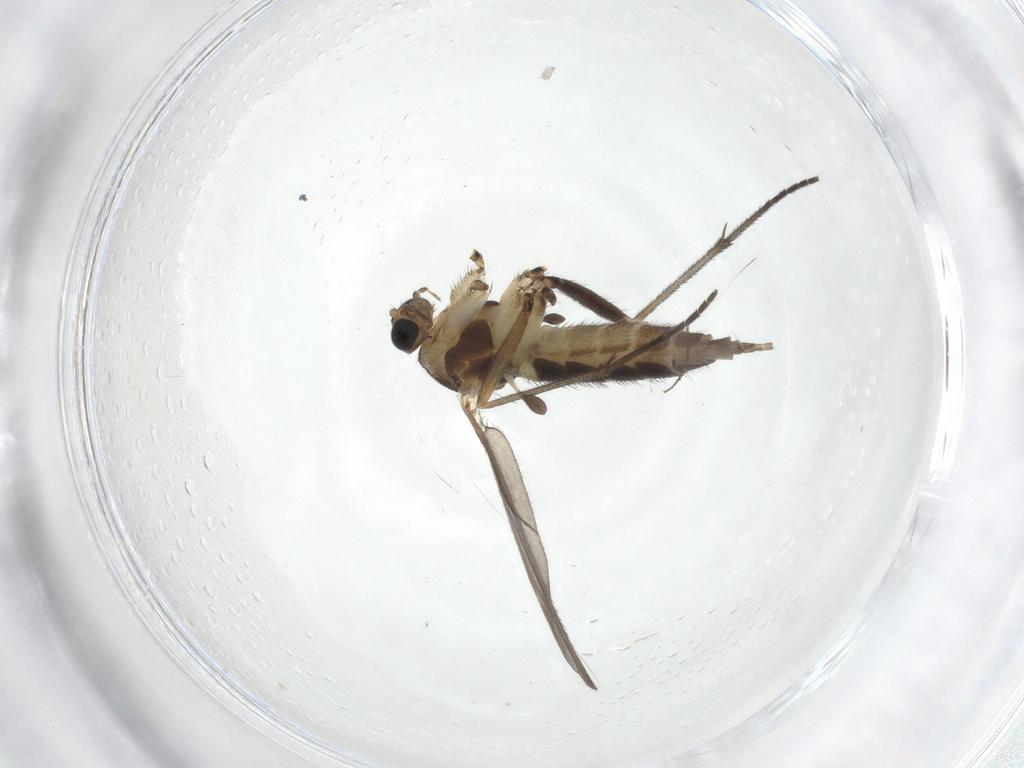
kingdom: Animalia
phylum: Arthropoda
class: Insecta
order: Diptera
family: Sciaridae
